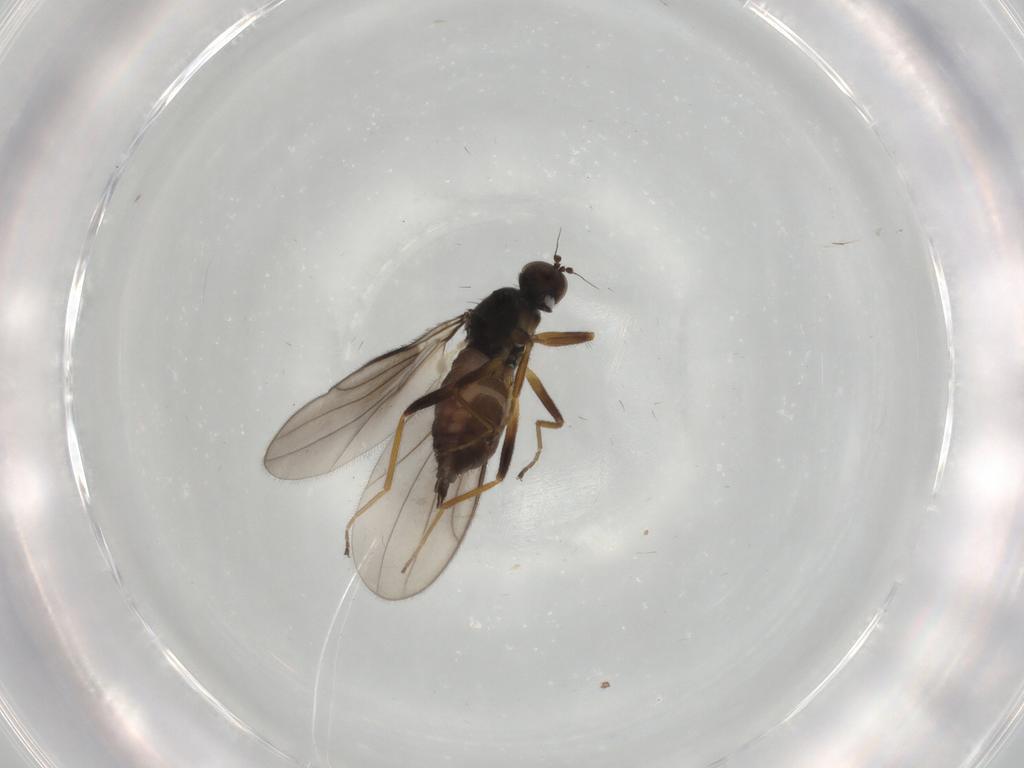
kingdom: Animalia
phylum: Arthropoda
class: Insecta
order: Diptera
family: Hybotidae
